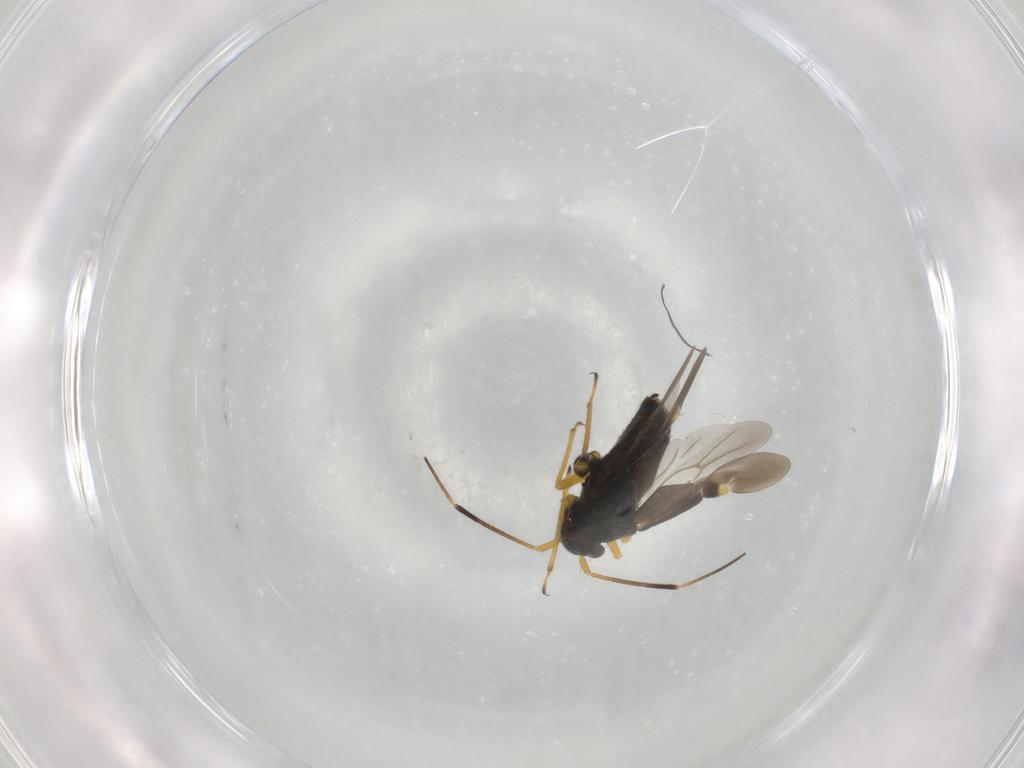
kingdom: Animalia
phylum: Arthropoda
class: Insecta
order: Hemiptera
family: Miridae
